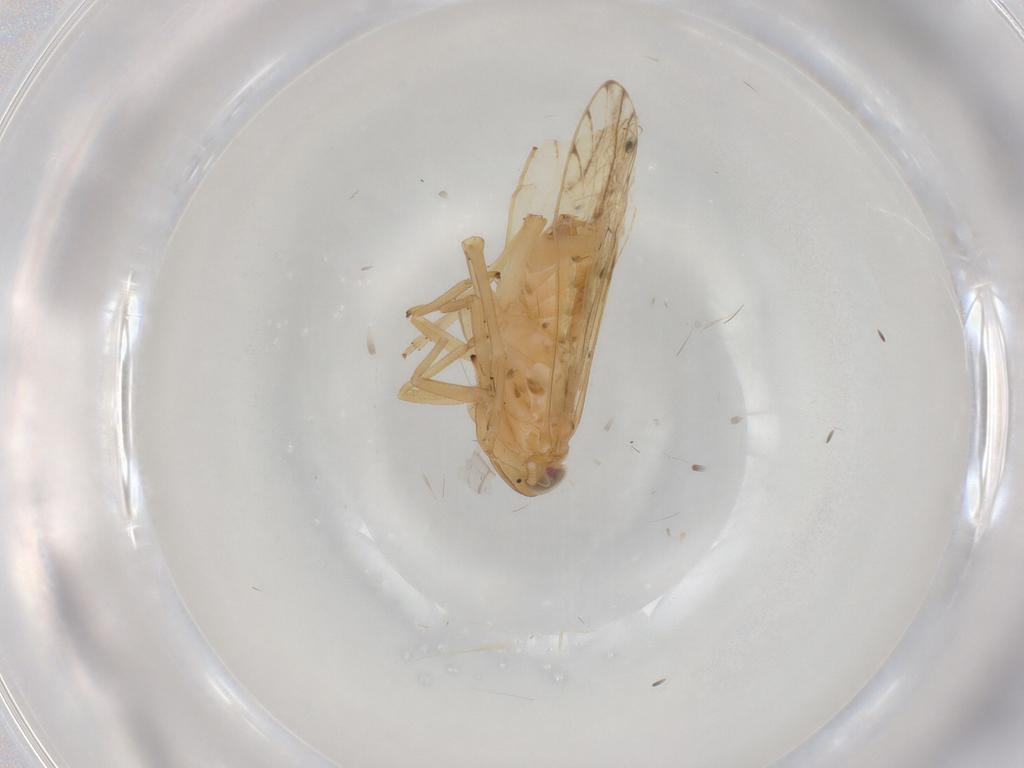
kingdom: Animalia
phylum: Arthropoda
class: Insecta
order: Hemiptera
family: Delphacidae
